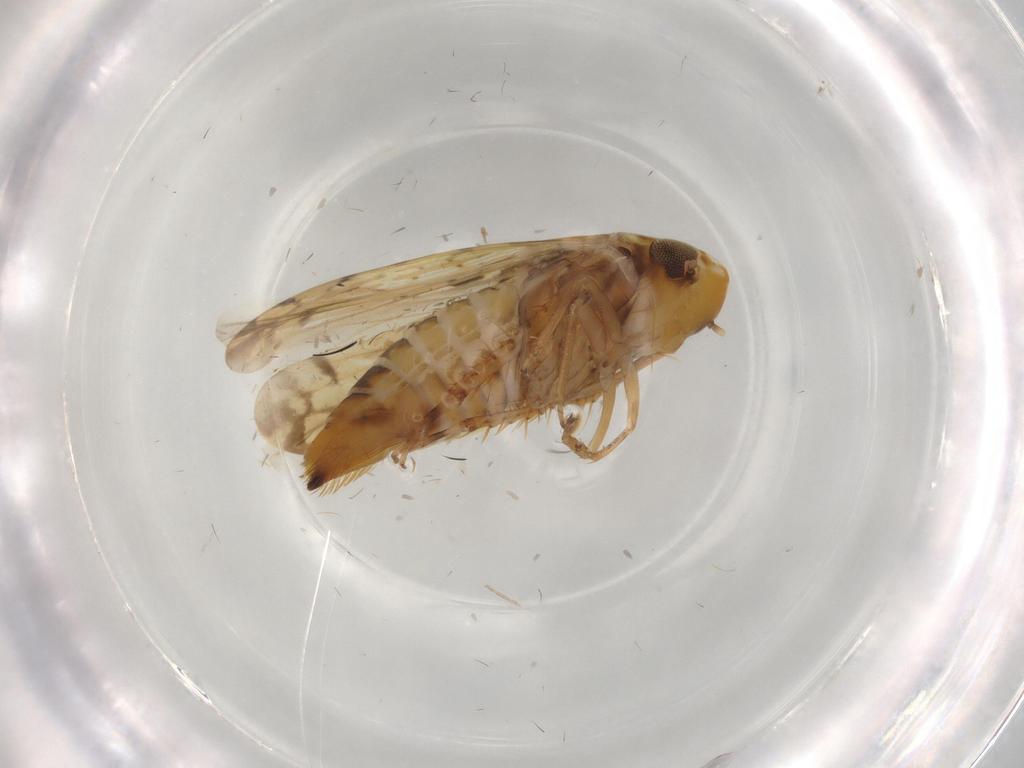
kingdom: Animalia
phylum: Arthropoda
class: Insecta
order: Hemiptera
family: Cicadellidae
